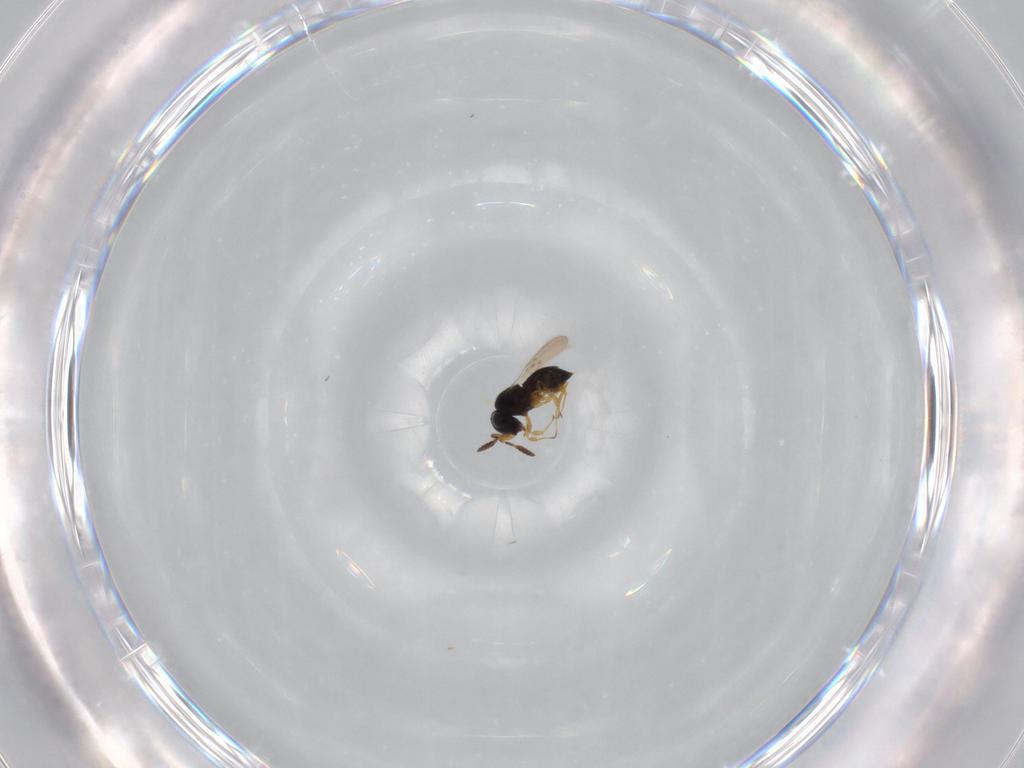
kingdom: Animalia
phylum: Arthropoda
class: Insecta
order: Hymenoptera
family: Scelionidae
